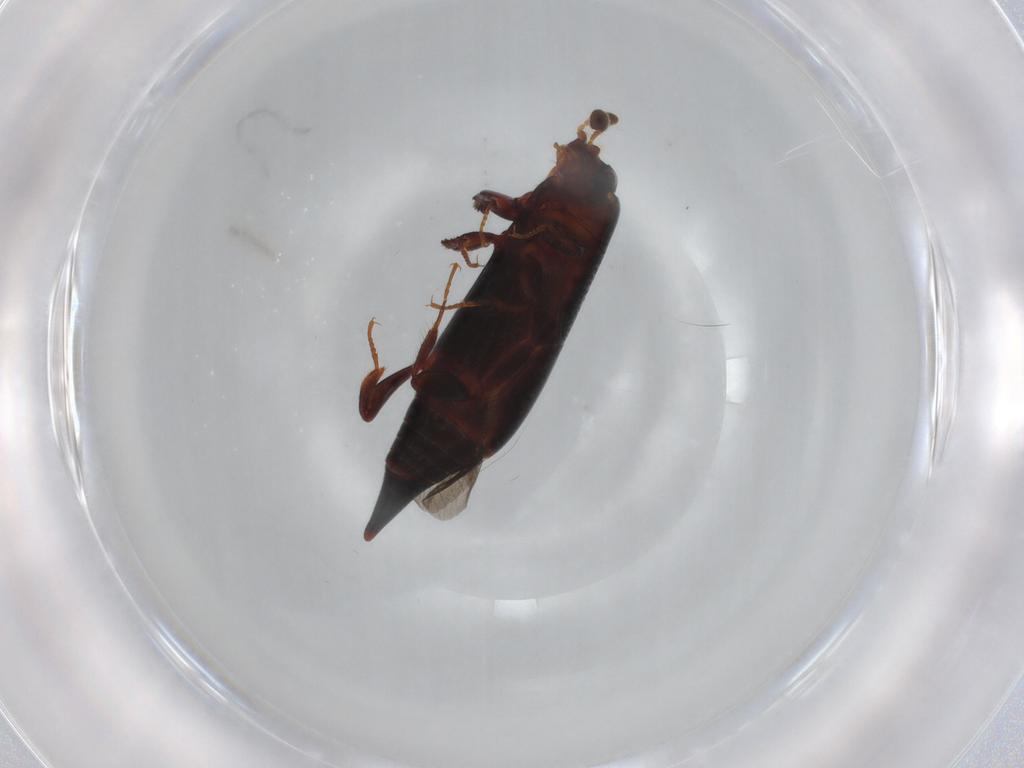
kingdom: Animalia
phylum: Arthropoda
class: Insecta
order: Coleoptera
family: Histeridae
